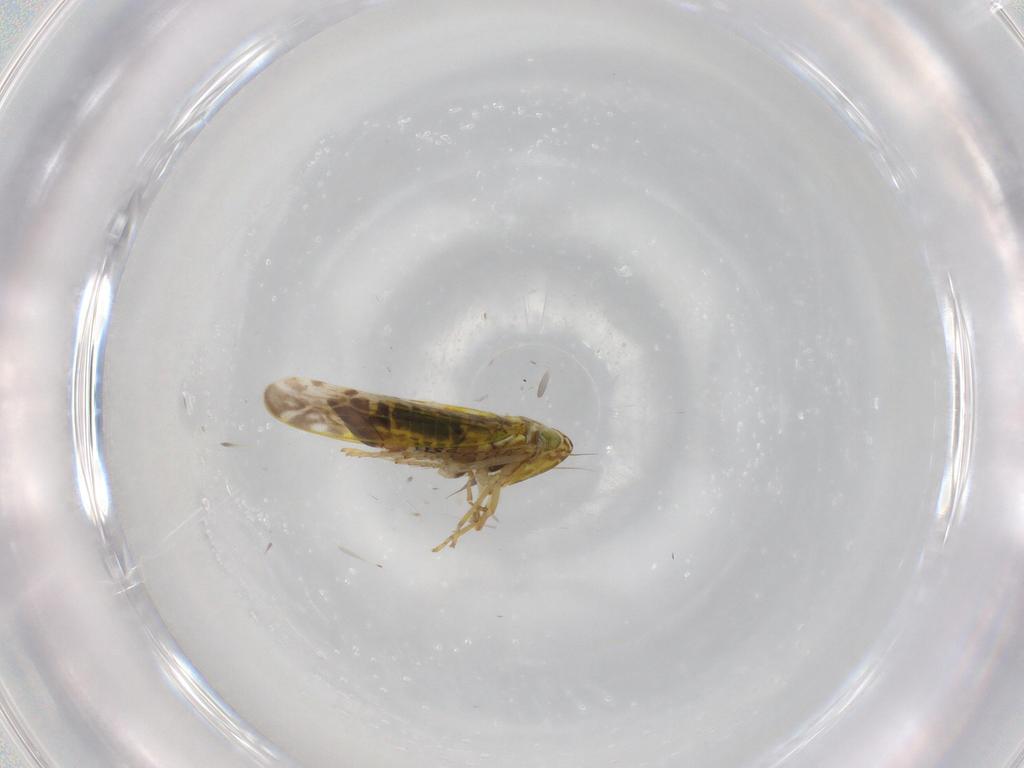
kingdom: Animalia
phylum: Arthropoda
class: Insecta
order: Hemiptera
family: Cicadellidae
